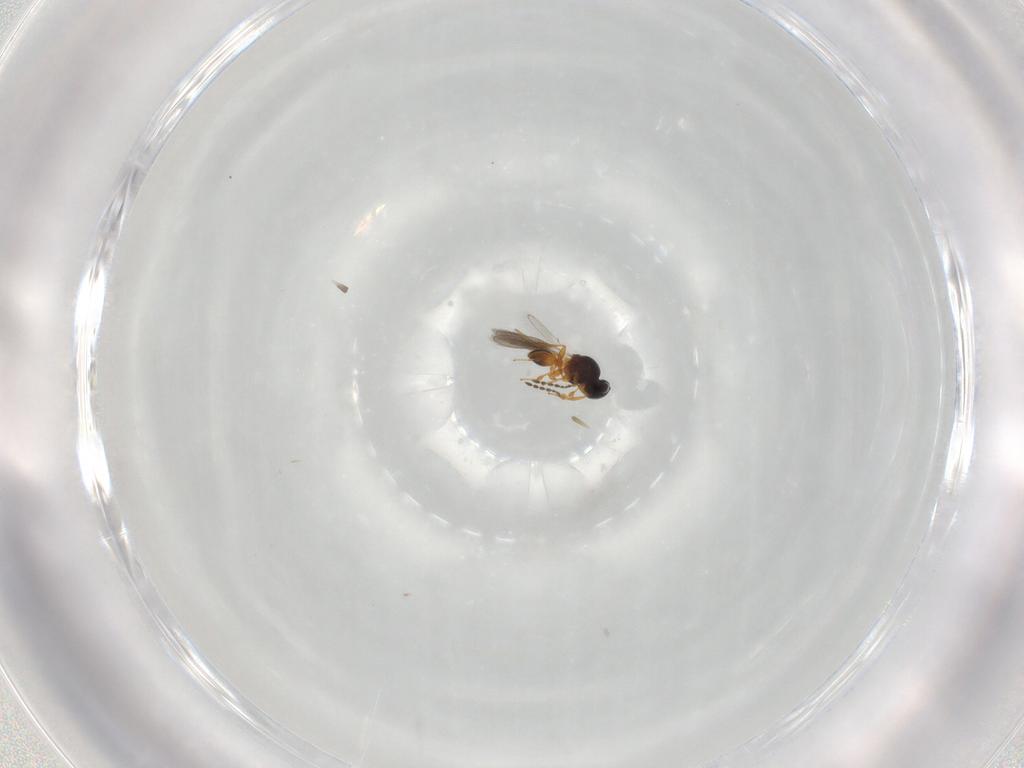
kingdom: Animalia
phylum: Arthropoda
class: Insecta
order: Hymenoptera
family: Platygastridae
